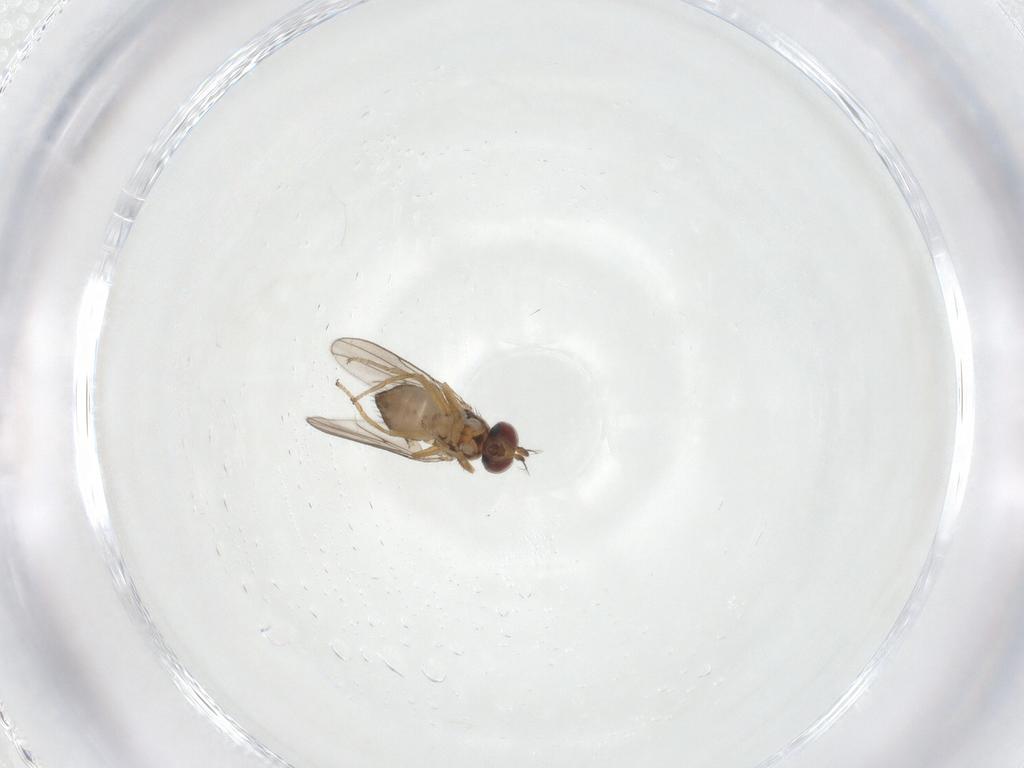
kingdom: Animalia
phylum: Arthropoda
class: Insecta
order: Diptera
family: Ephydridae
